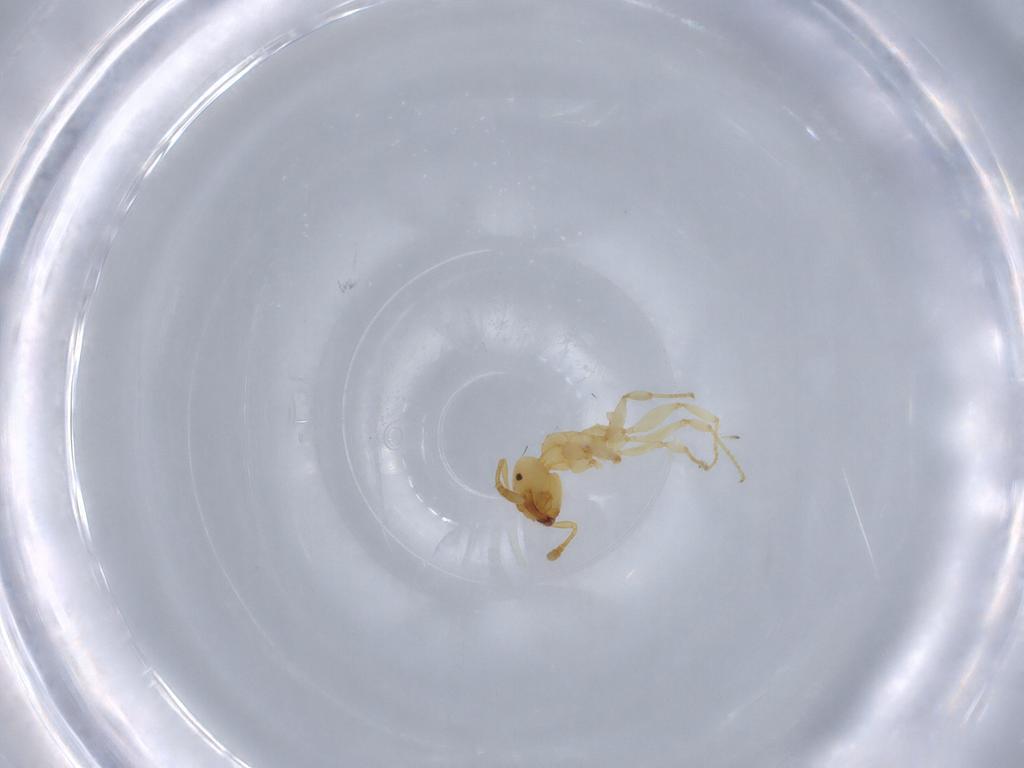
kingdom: Animalia
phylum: Arthropoda
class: Insecta
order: Hymenoptera
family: Formicidae
